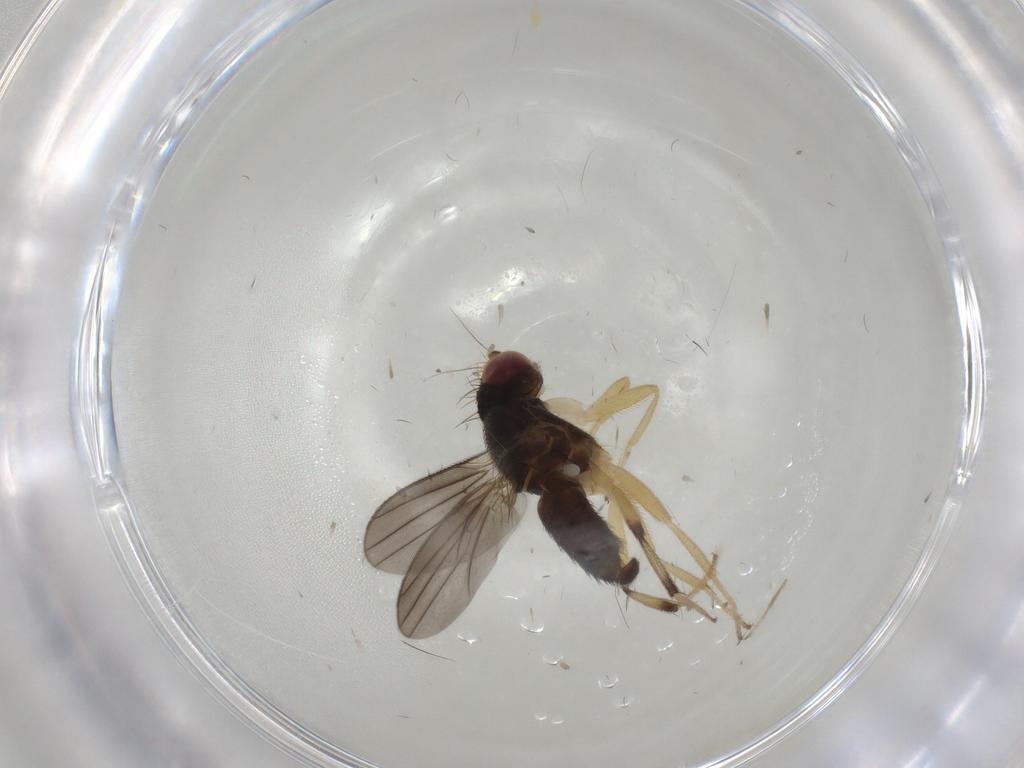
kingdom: Animalia
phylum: Arthropoda
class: Insecta
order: Diptera
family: Clusiidae
